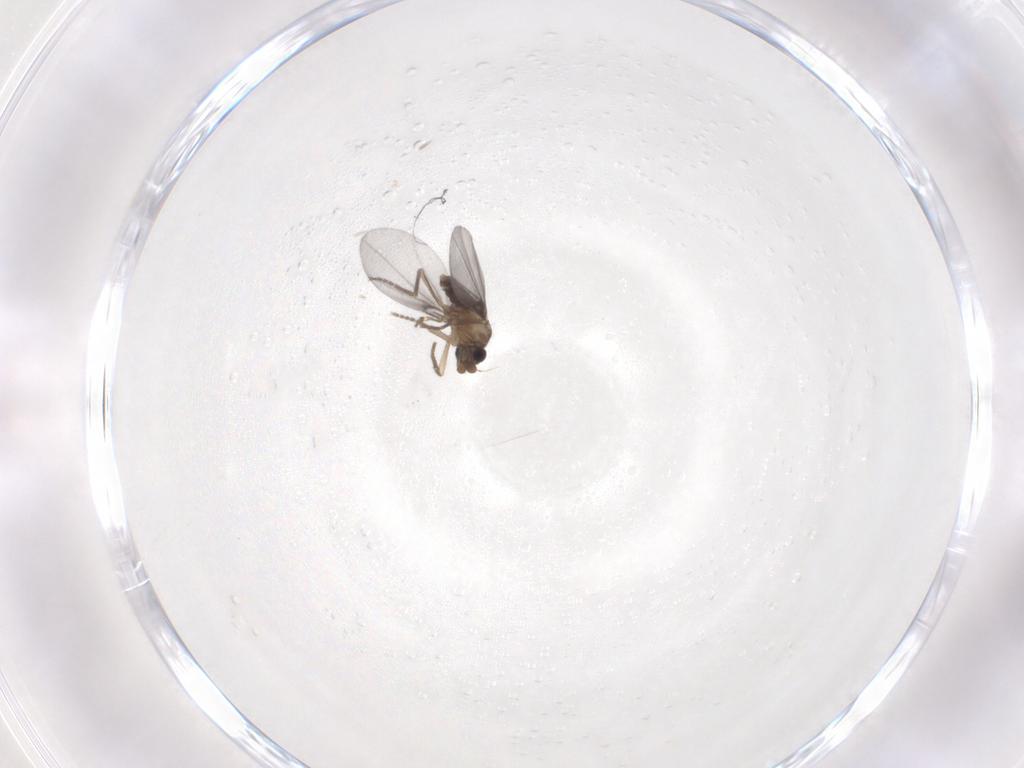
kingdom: Animalia
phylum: Arthropoda
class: Insecta
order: Diptera
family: Phoridae
